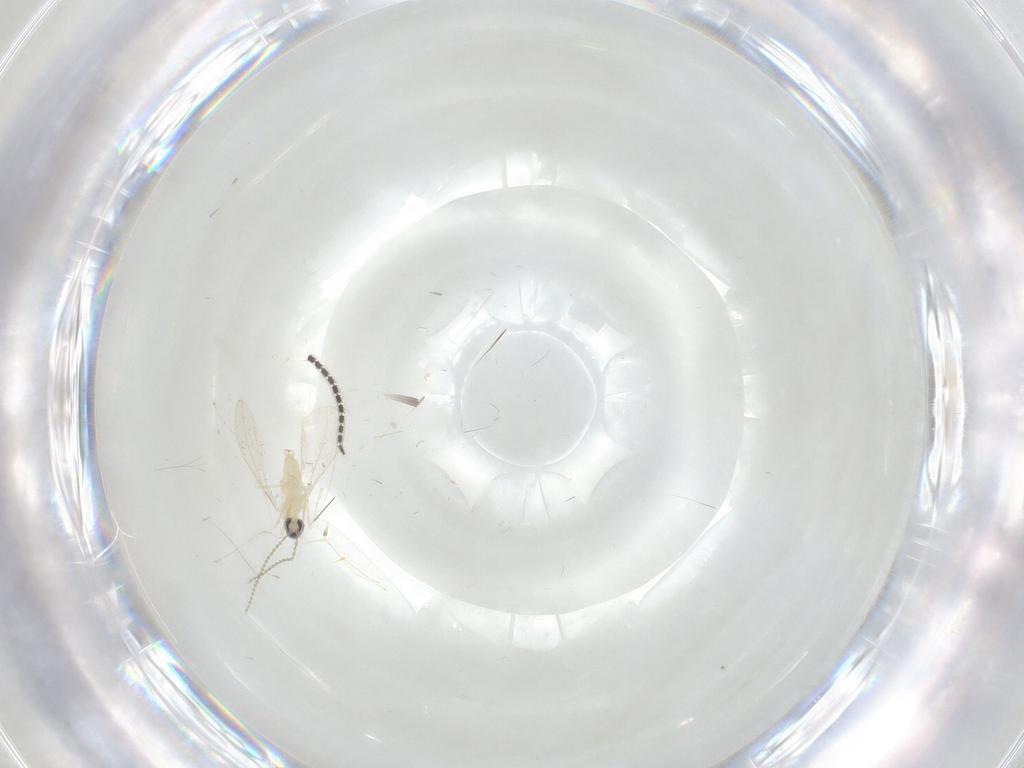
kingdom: Animalia
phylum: Arthropoda
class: Insecta
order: Diptera
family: Cecidomyiidae
